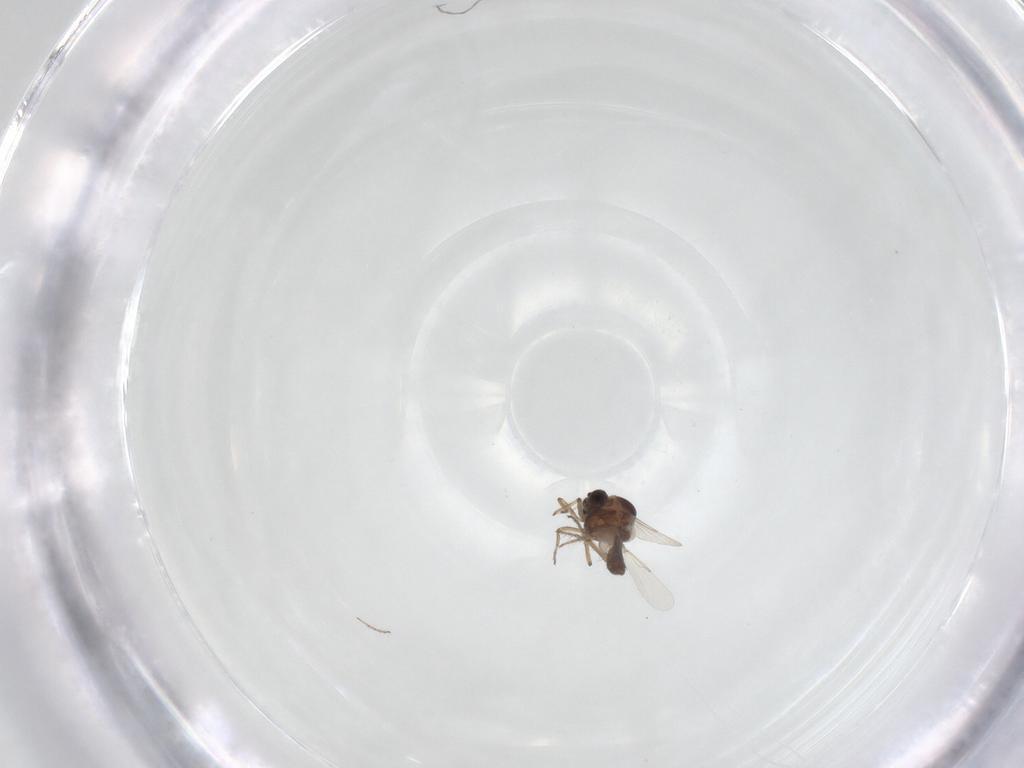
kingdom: Animalia
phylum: Arthropoda
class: Insecta
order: Diptera
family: Ceratopogonidae
